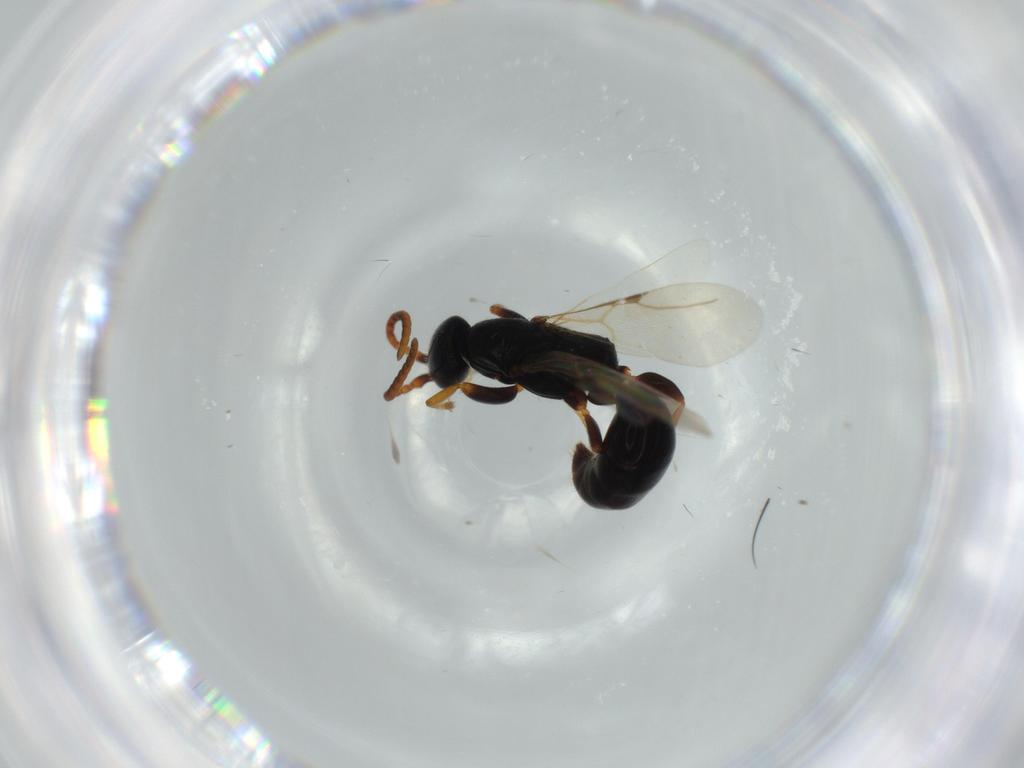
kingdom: Animalia
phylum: Arthropoda
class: Insecta
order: Hymenoptera
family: Bethylidae
